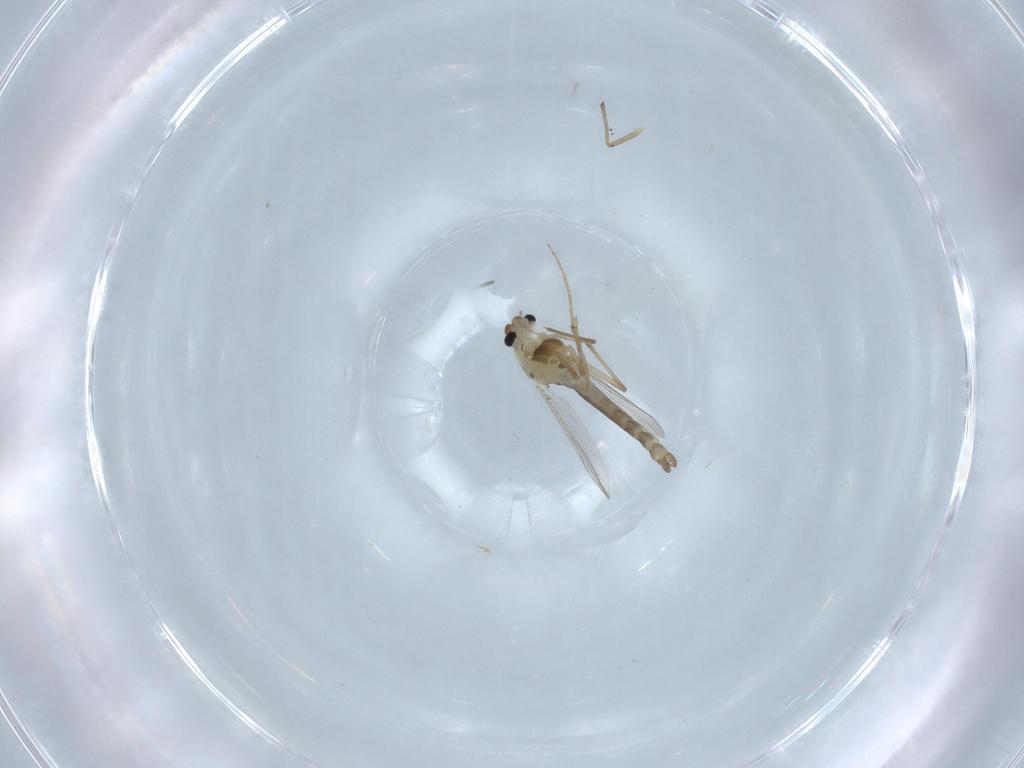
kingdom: Animalia
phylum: Arthropoda
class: Insecta
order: Diptera
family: Chironomidae
